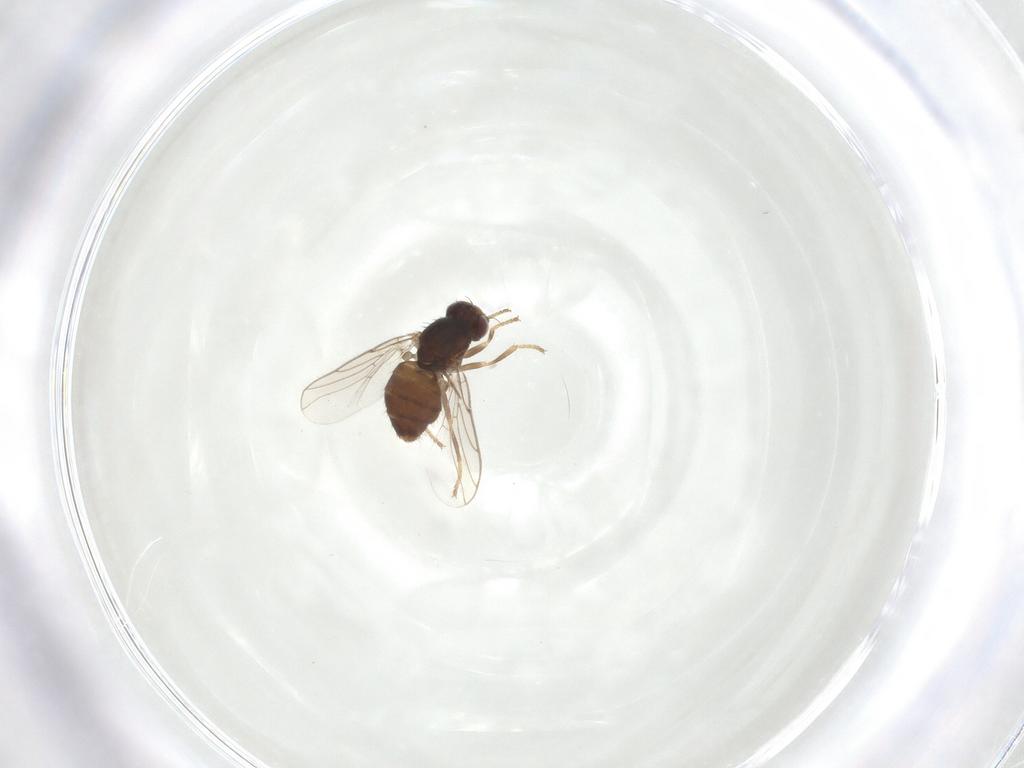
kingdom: Animalia
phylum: Arthropoda
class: Insecta
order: Diptera
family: Chloropidae
